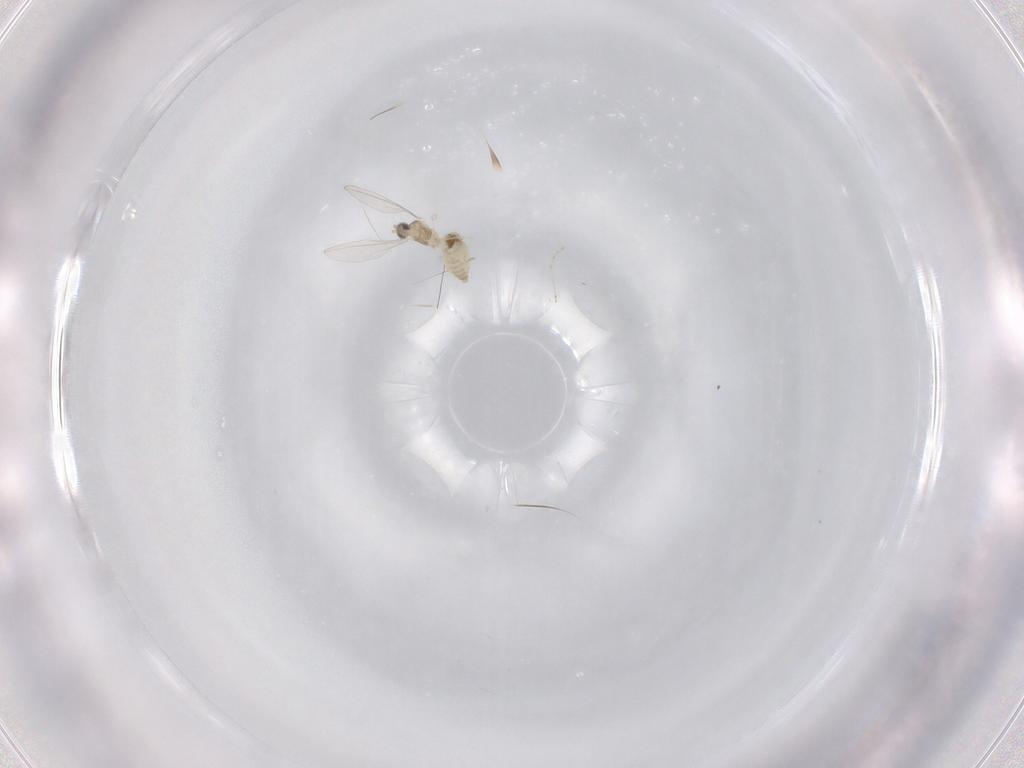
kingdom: Animalia
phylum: Arthropoda
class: Insecta
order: Diptera
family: Cecidomyiidae
